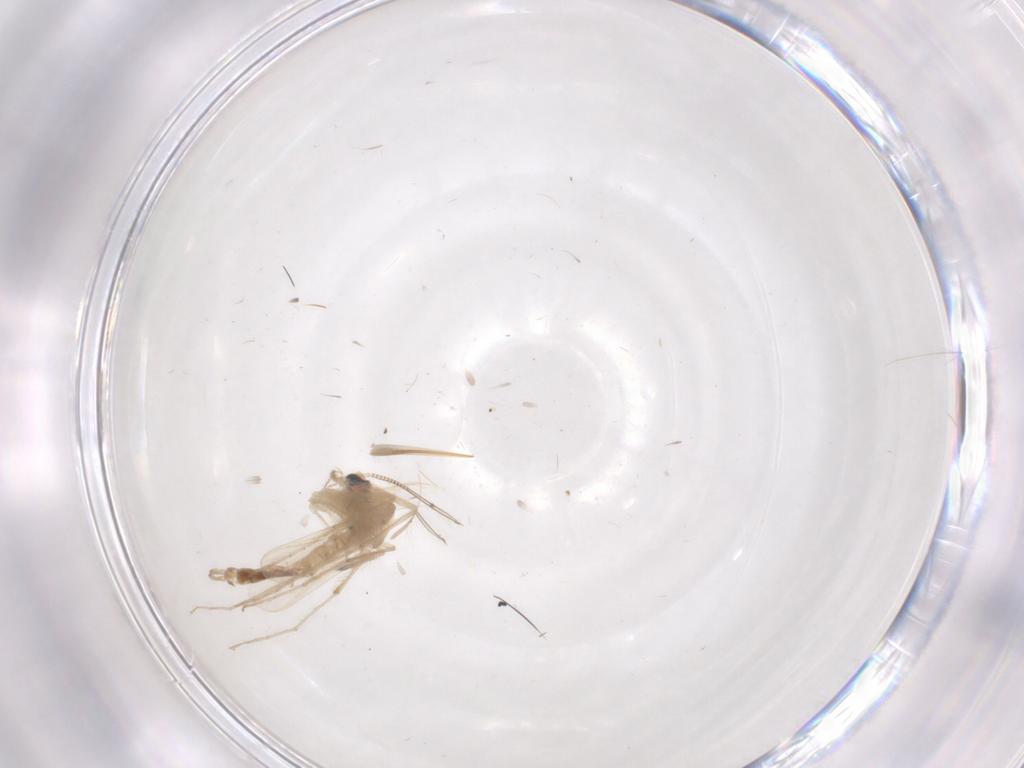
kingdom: Animalia
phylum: Arthropoda
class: Insecta
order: Diptera
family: Chironomidae
